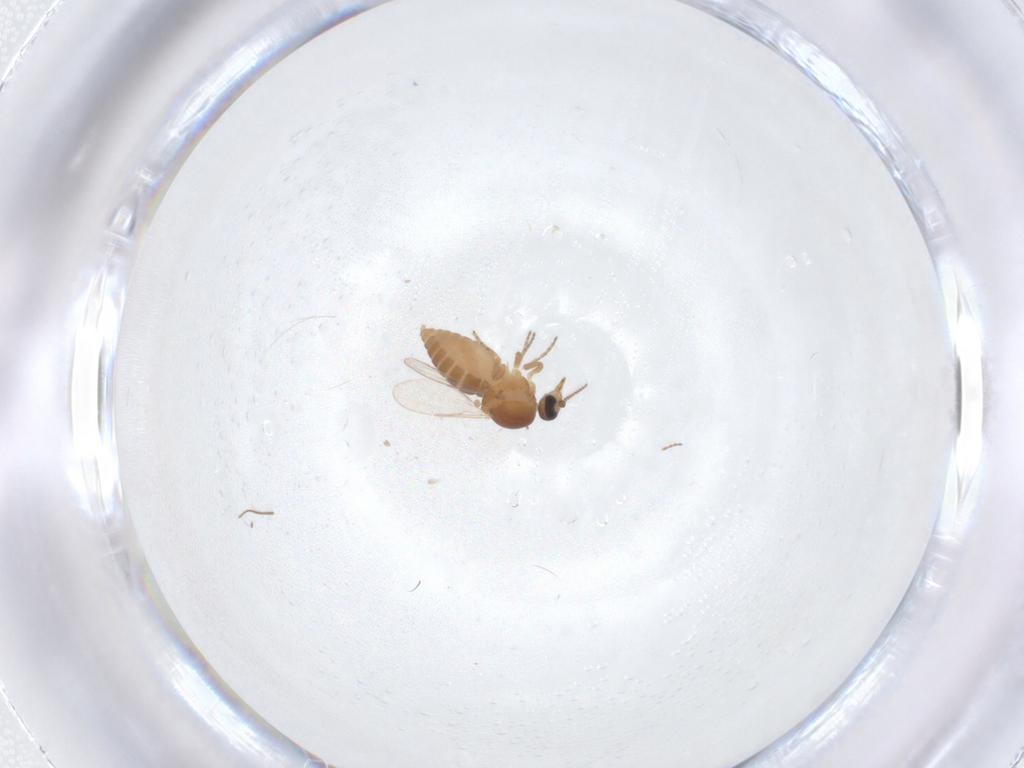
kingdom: Animalia
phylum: Arthropoda
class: Insecta
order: Diptera
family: Ceratopogonidae
